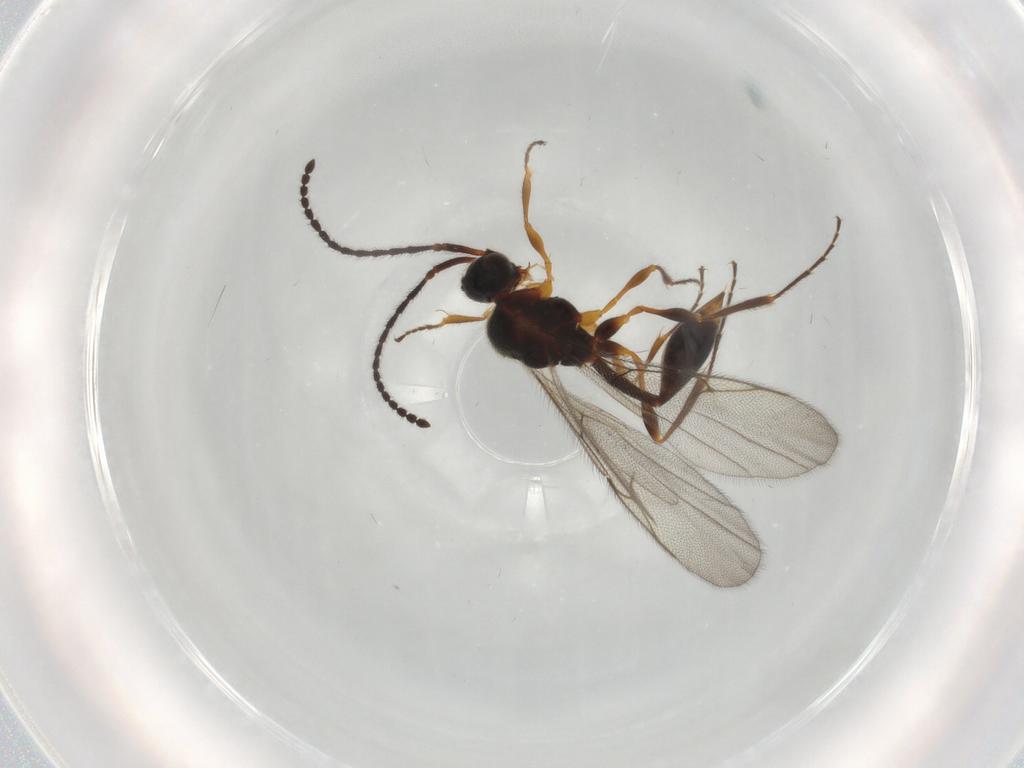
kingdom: Animalia
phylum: Arthropoda
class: Insecta
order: Hymenoptera
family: Diapriidae
